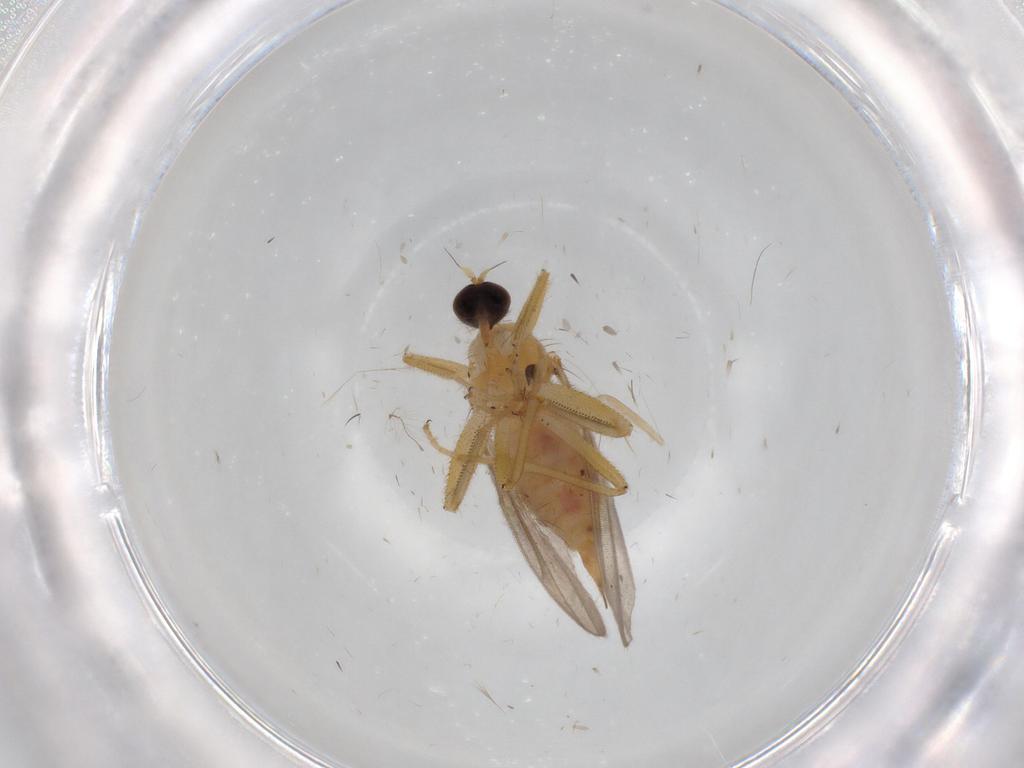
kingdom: Animalia
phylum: Arthropoda
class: Insecta
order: Diptera
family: Hybotidae
